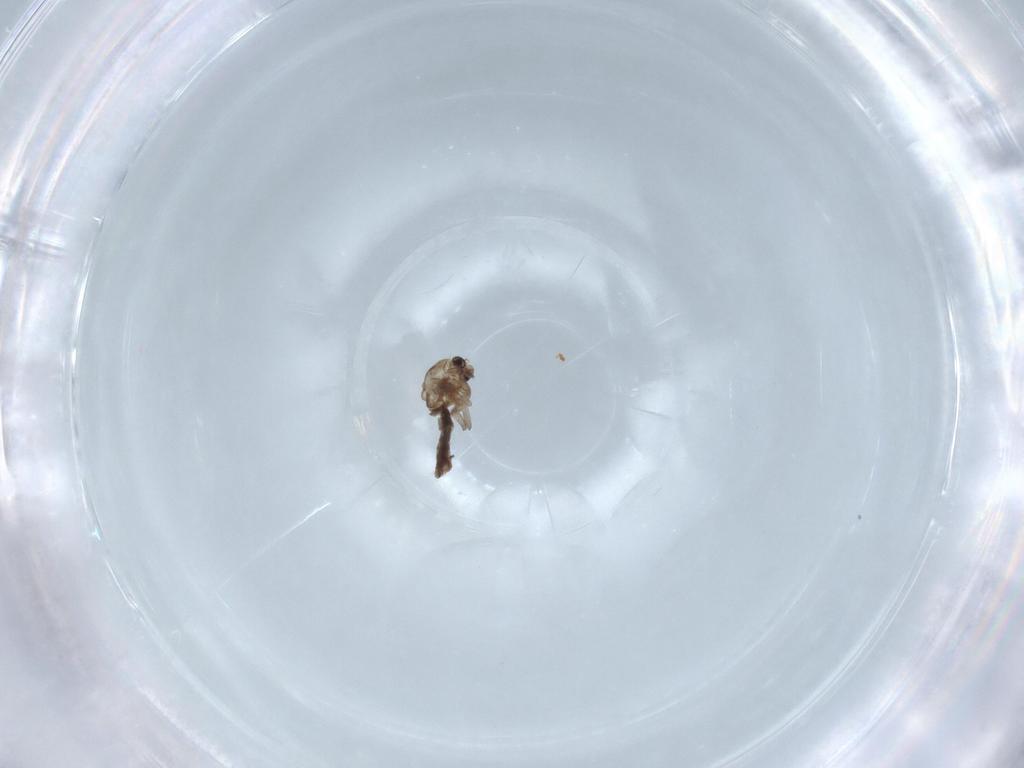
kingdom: Animalia
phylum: Arthropoda
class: Insecta
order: Diptera
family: Chironomidae
